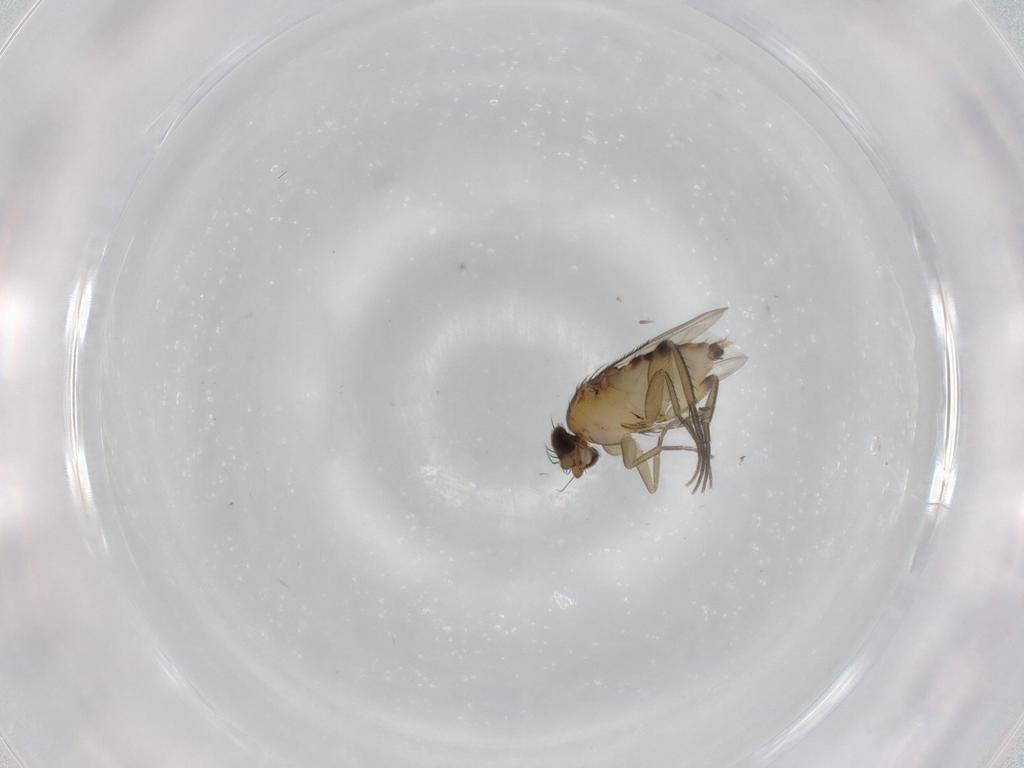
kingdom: Animalia
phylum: Arthropoda
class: Insecta
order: Diptera
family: Phoridae
